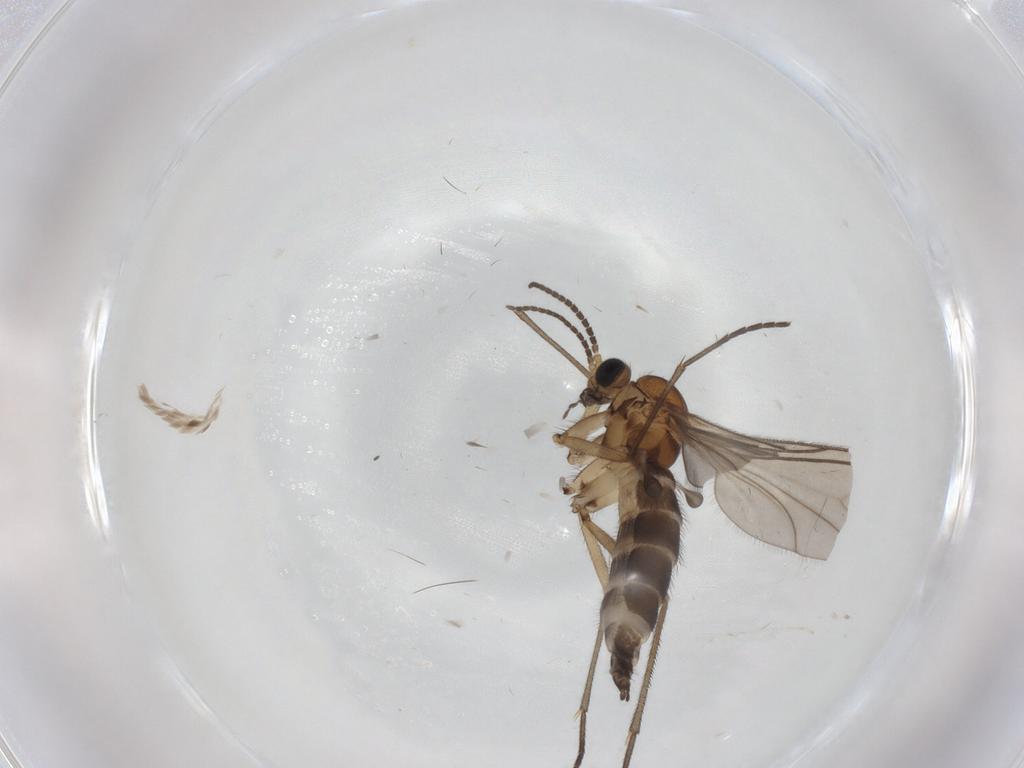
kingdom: Animalia
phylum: Arthropoda
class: Insecta
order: Diptera
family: Sciaridae
